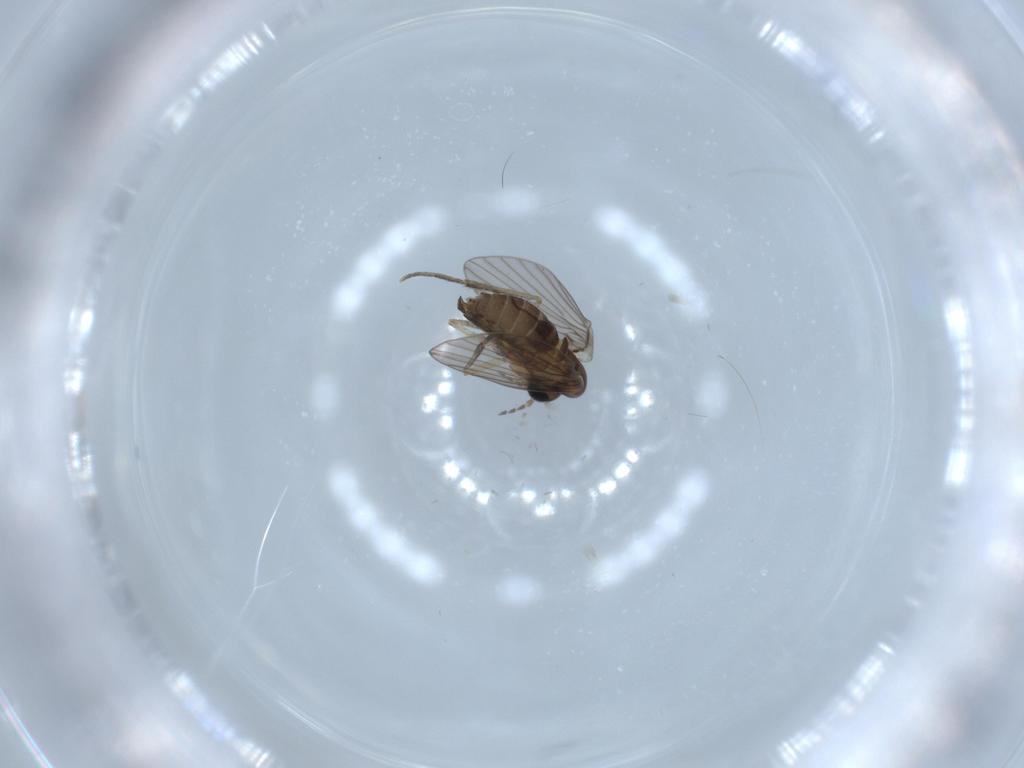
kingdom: Animalia
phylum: Arthropoda
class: Insecta
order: Diptera
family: Psychodidae
